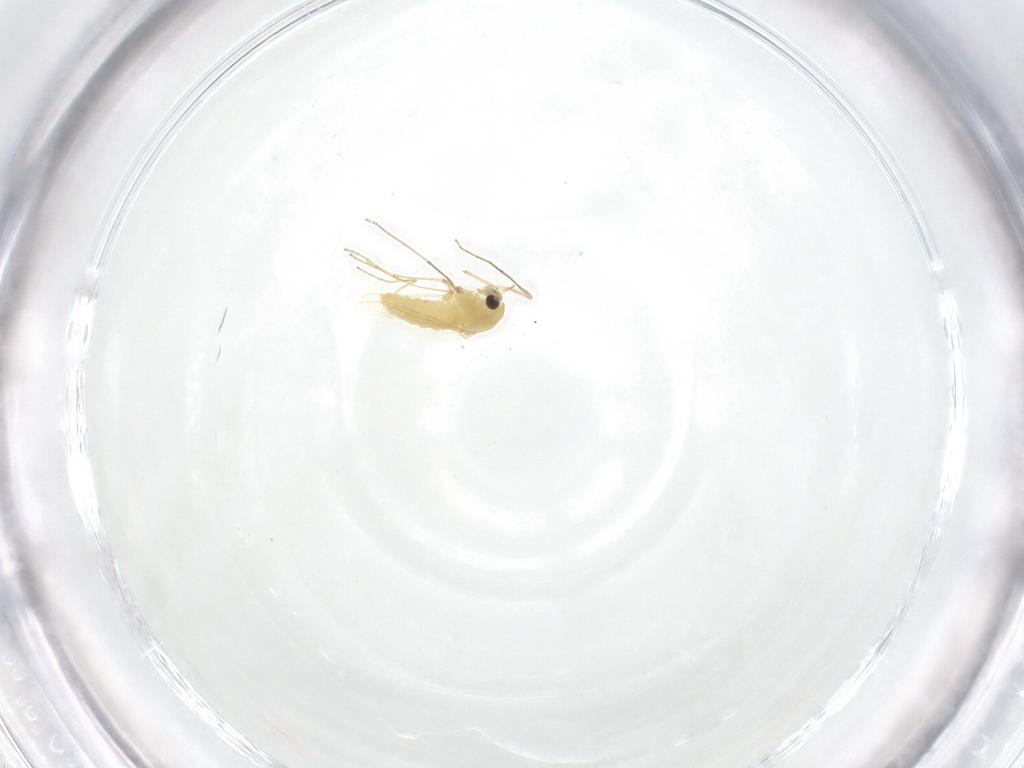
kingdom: Animalia
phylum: Arthropoda
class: Insecta
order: Diptera
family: Chironomidae
